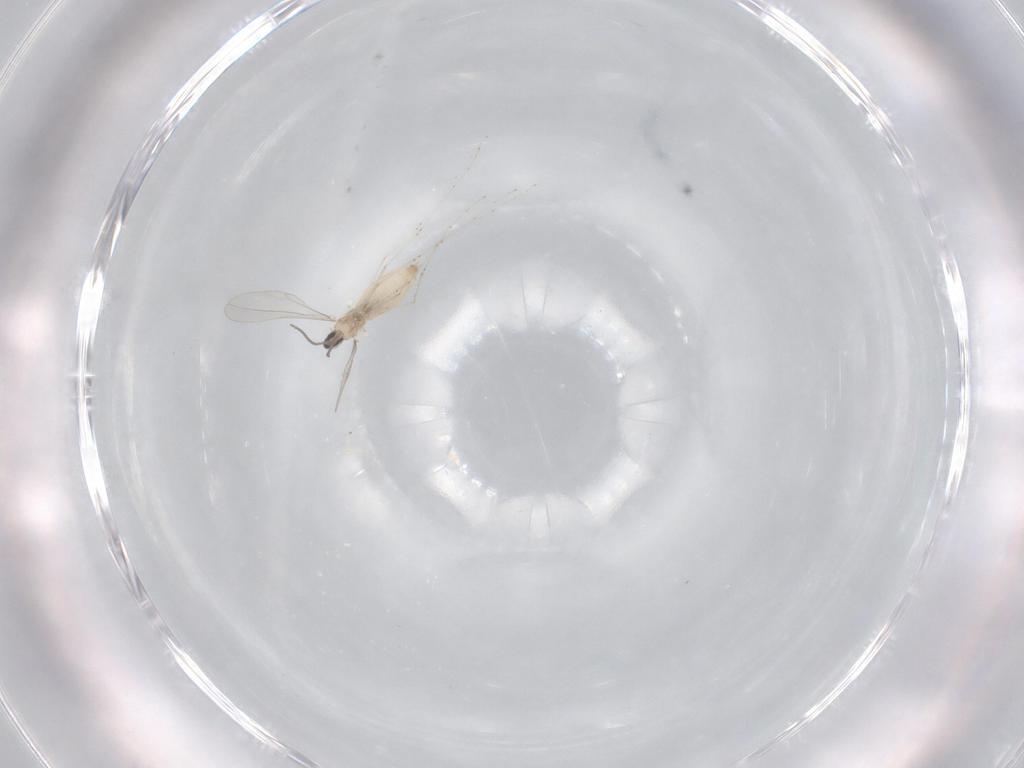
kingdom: Animalia
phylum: Arthropoda
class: Insecta
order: Diptera
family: Cecidomyiidae
